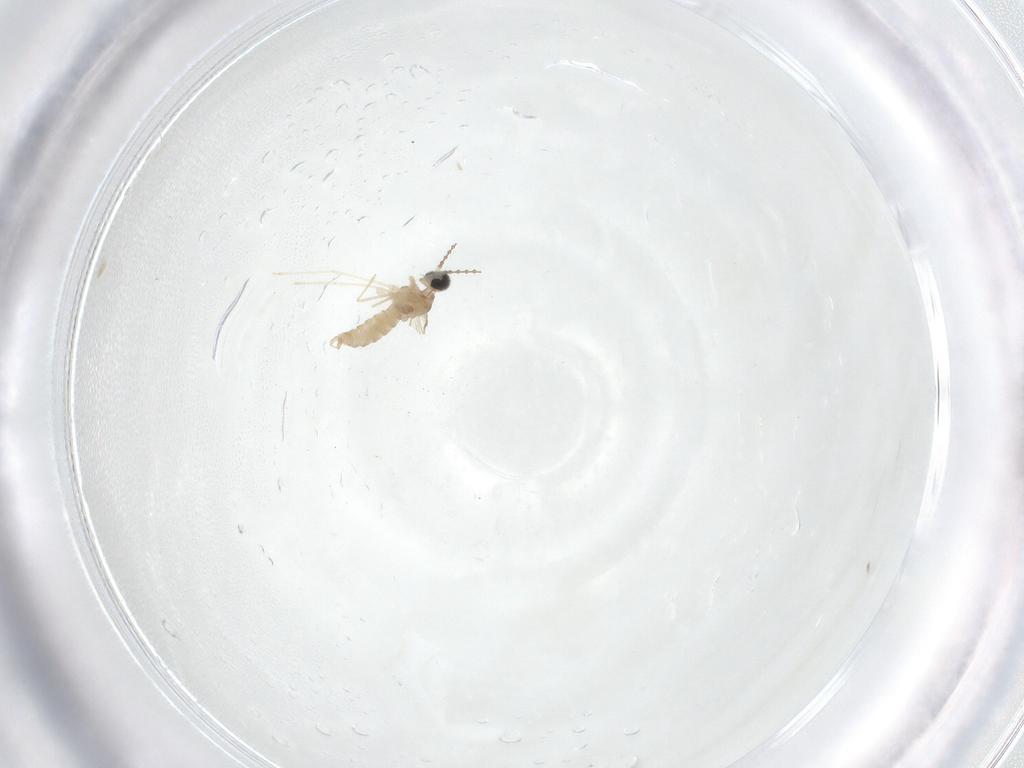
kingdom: Animalia
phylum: Arthropoda
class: Insecta
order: Diptera
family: Cecidomyiidae
